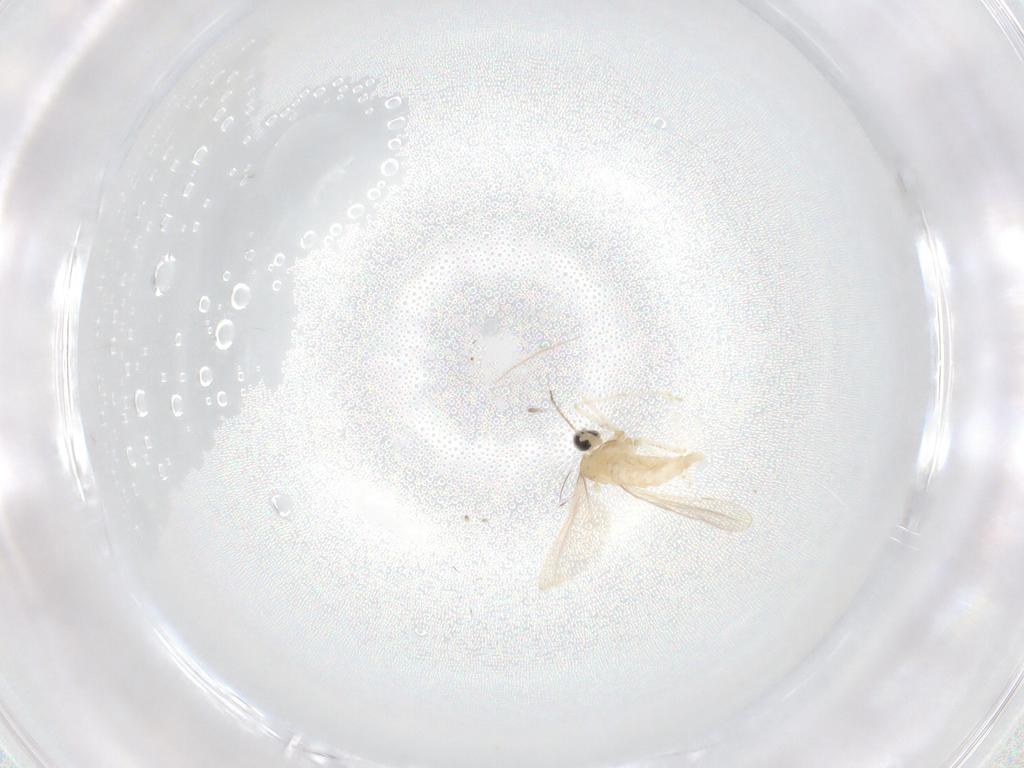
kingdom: Animalia
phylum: Arthropoda
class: Insecta
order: Diptera
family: Cecidomyiidae
